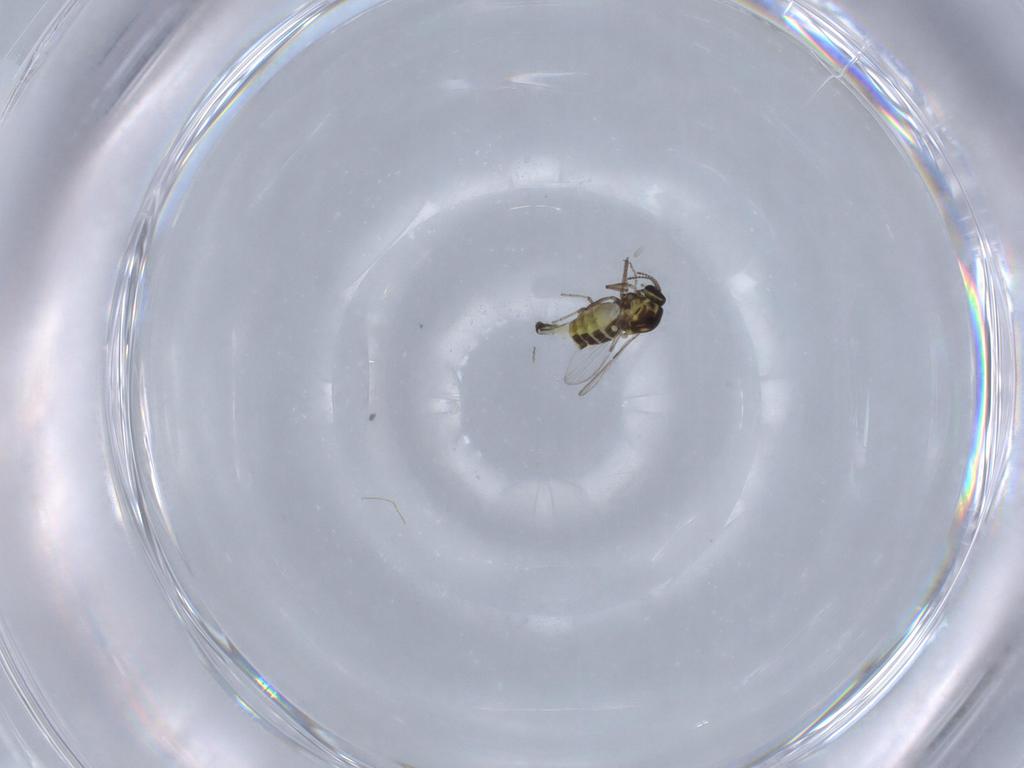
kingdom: Animalia
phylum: Arthropoda
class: Insecta
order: Diptera
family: Ceratopogonidae
